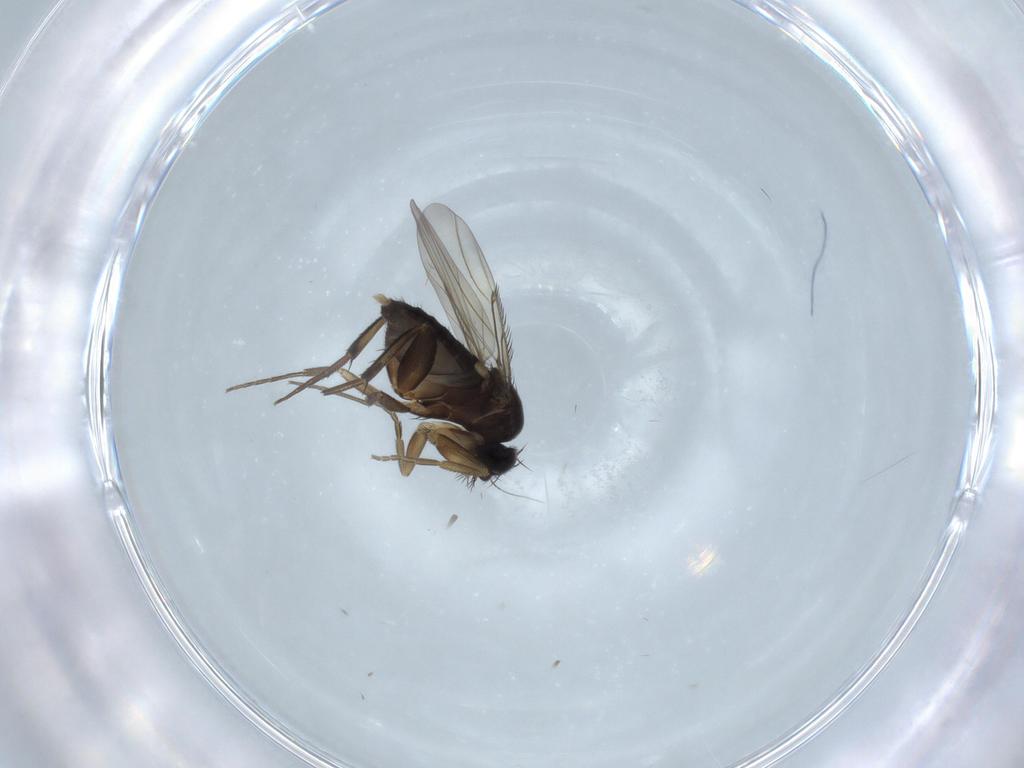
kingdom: Animalia
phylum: Arthropoda
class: Insecta
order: Diptera
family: Phoridae
